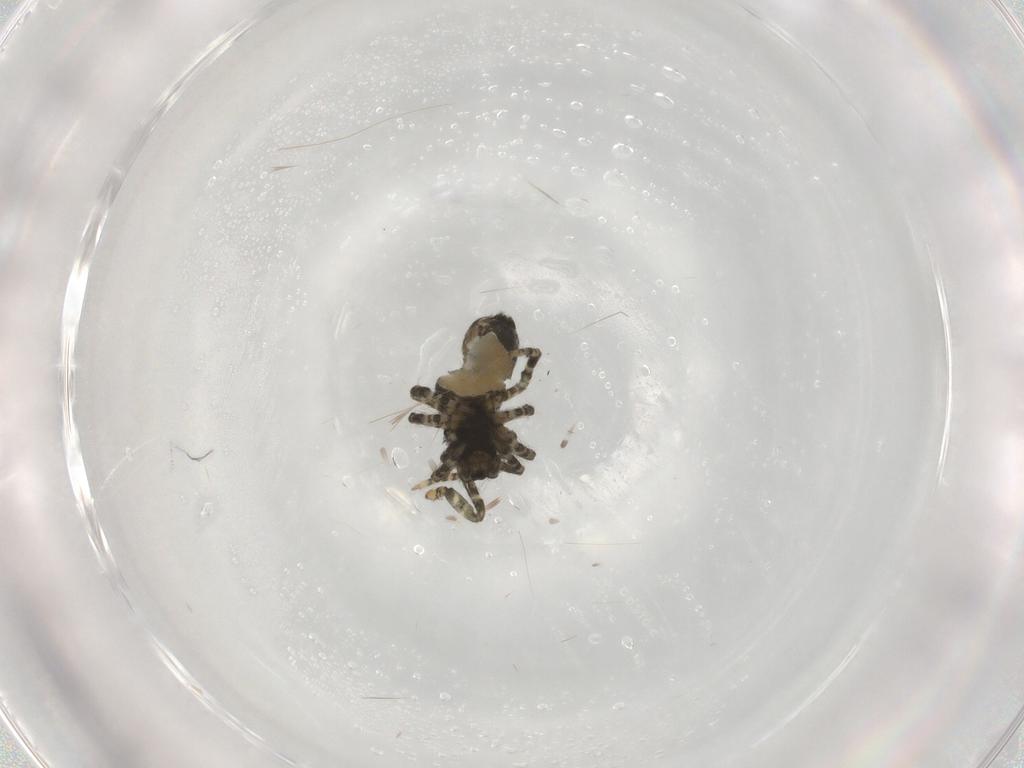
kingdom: Animalia
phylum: Arthropoda
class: Arachnida
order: Araneae
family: Araneidae
